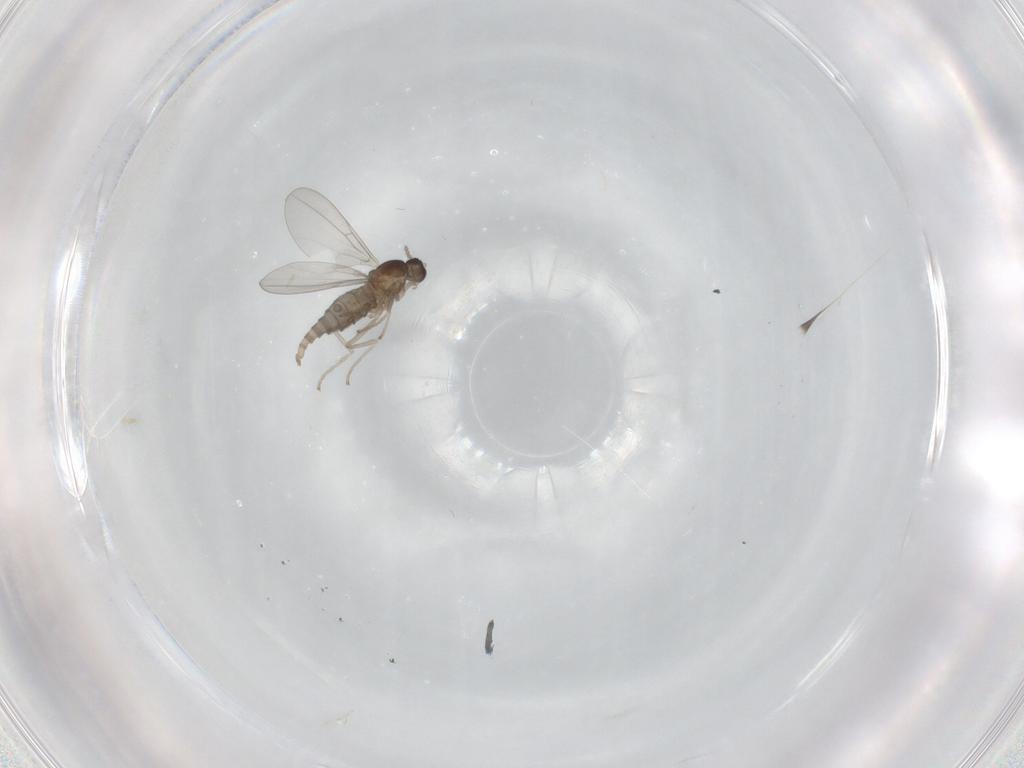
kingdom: Animalia
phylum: Arthropoda
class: Insecta
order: Diptera
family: Cecidomyiidae
